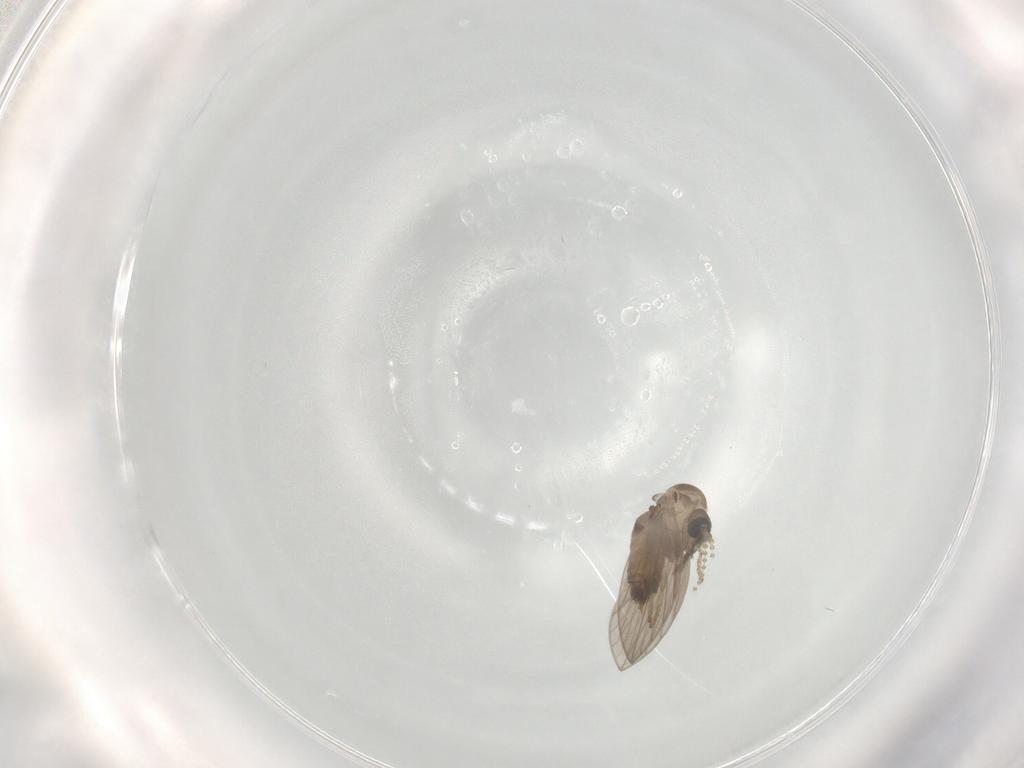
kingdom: Animalia
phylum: Arthropoda
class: Insecta
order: Diptera
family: Psychodidae
